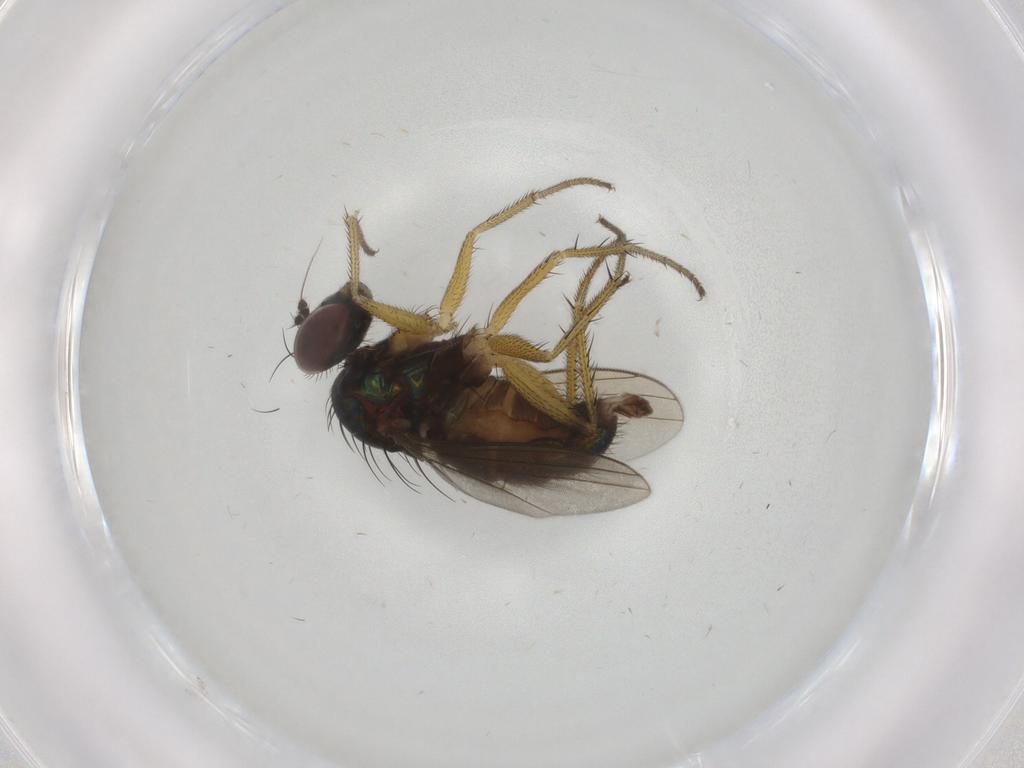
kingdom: Animalia
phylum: Arthropoda
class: Insecta
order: Diptera
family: Dolichopodidae
